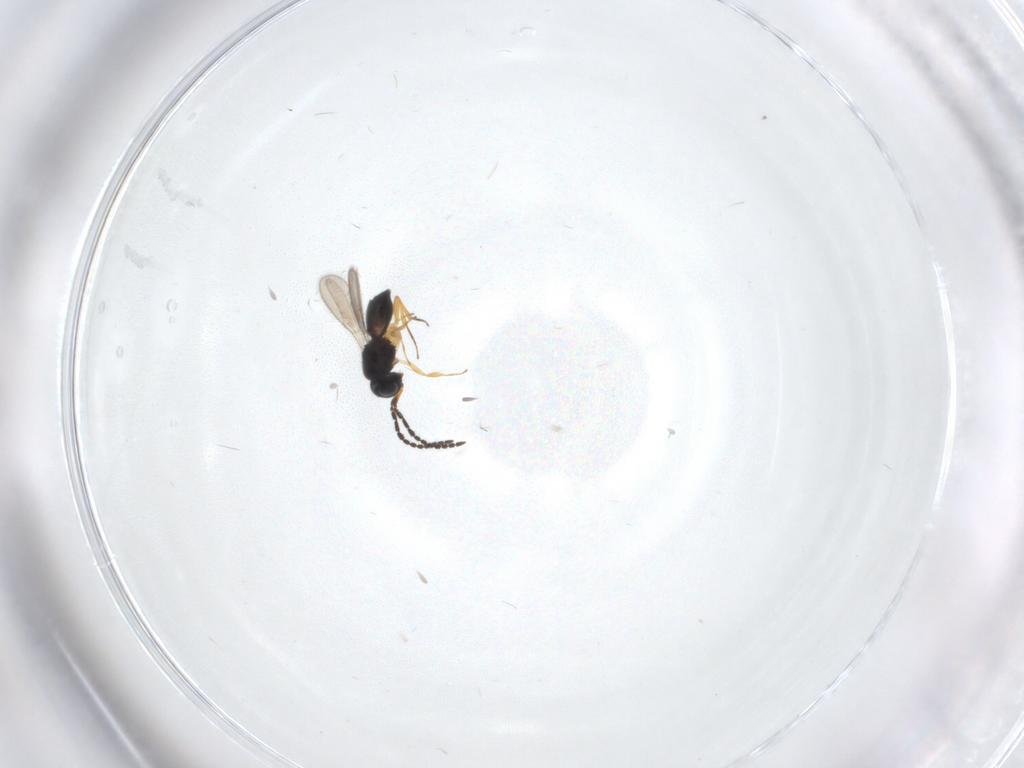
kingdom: Animalia
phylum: Arthropoda
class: Insecta
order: Hymenoptera
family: Scelionidae
